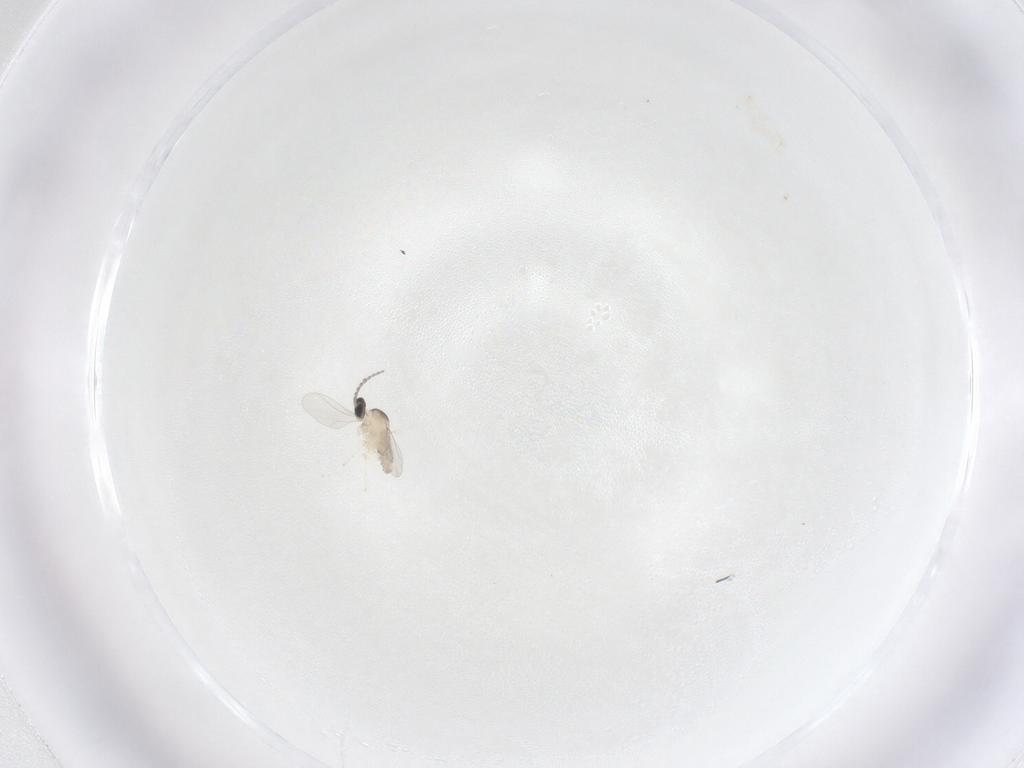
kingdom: Animalia
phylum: Arthropoda
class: Insecta
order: Diptera
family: Cecidomyiidae
